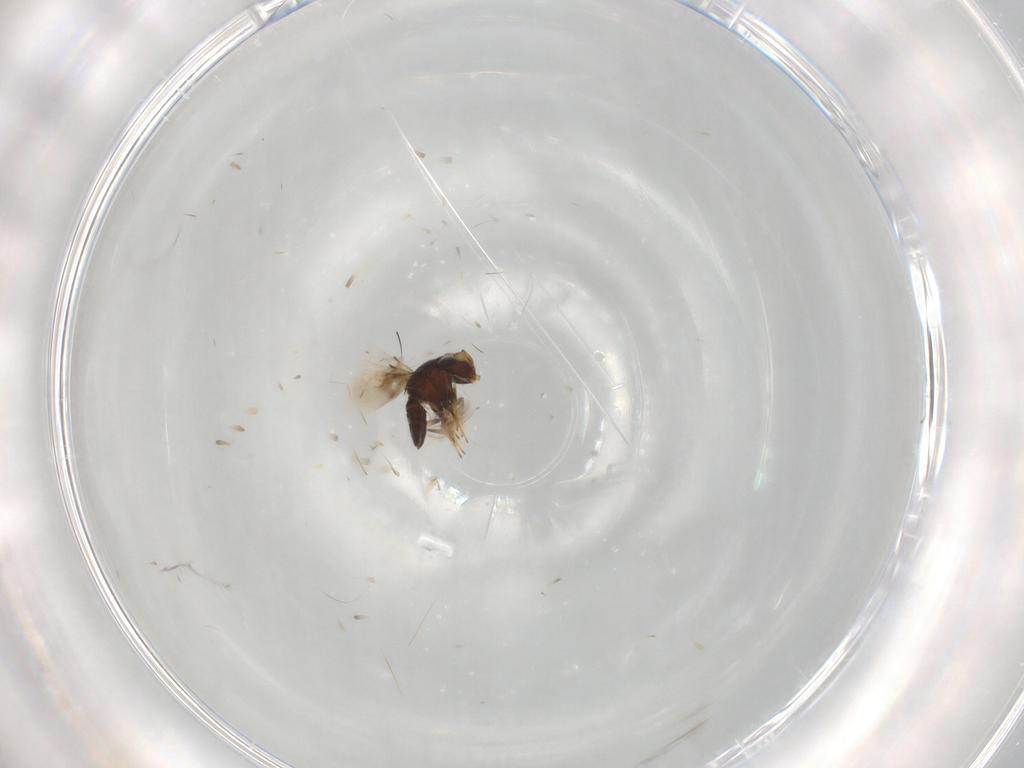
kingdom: Animalia
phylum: Arthropoda
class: Insecta
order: Hymenoptera
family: Scelionidae
